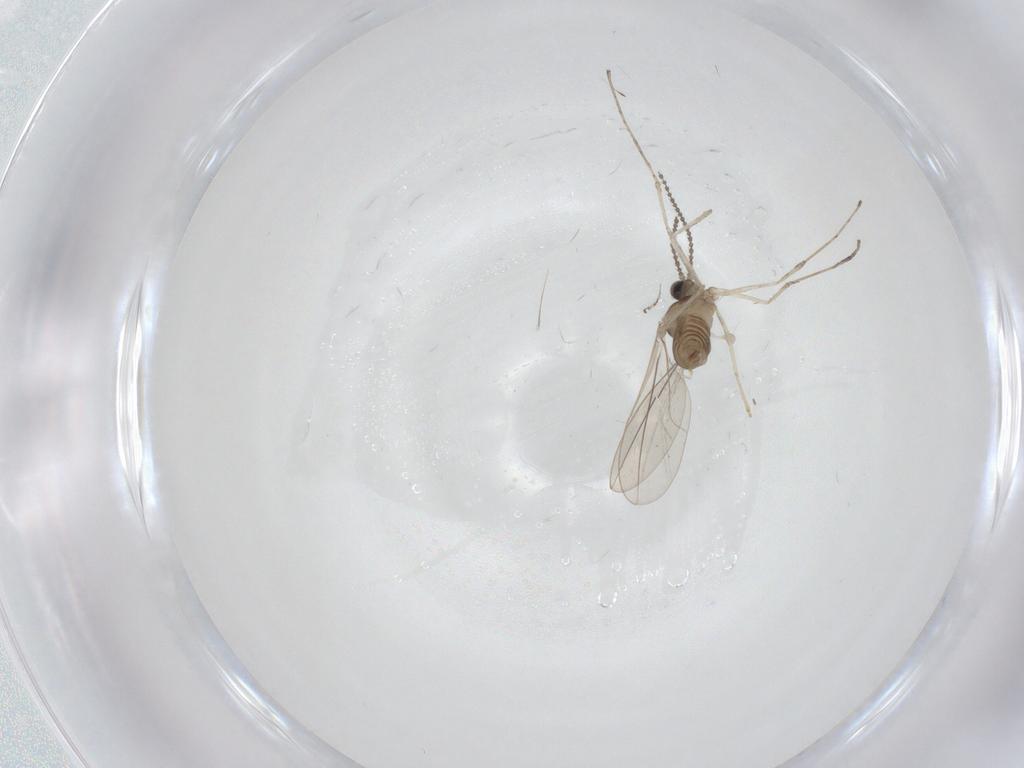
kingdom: Animalia
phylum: Arthropoda
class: Insecta
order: Diptera
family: Cecidomyiidae
